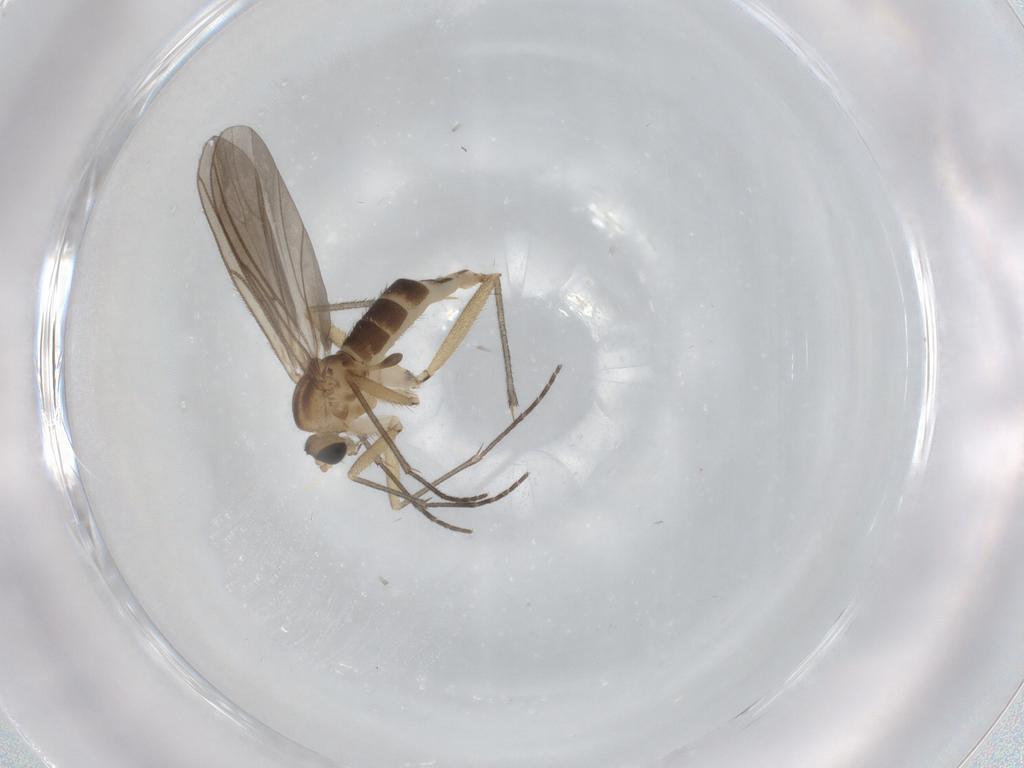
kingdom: Animalia
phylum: Arthropoda
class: Insecta
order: Diptera
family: Sciaridae
